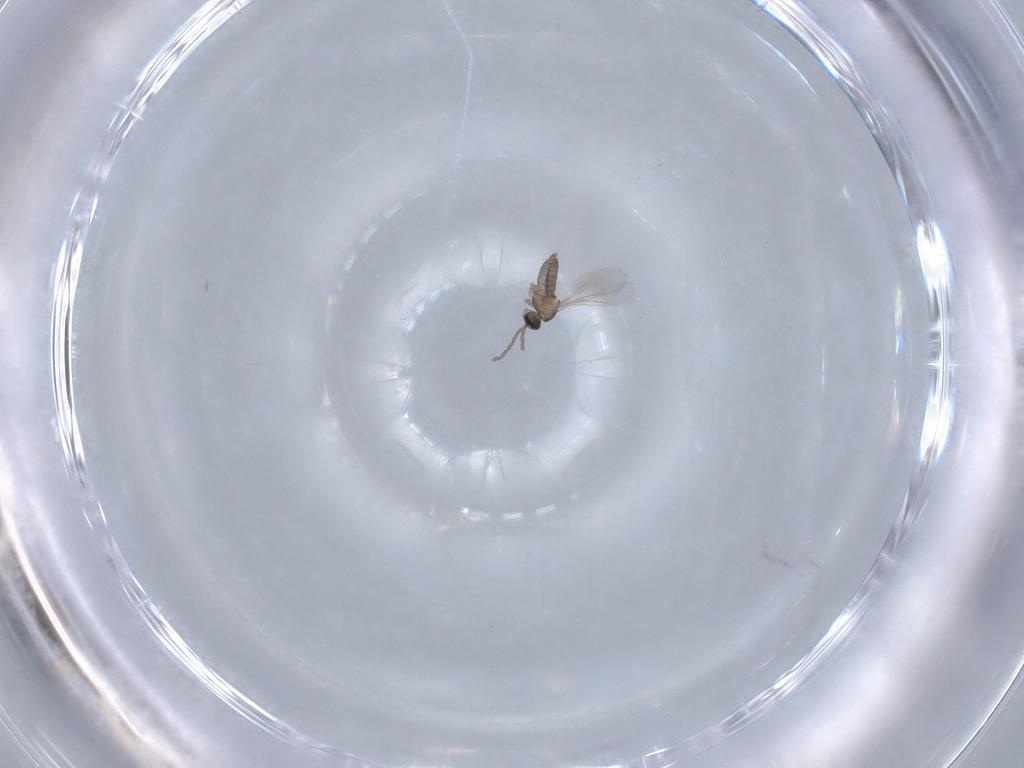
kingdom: Animalia
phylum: Arthropoda
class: Insecta
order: Diptera
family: Cecidomyiidae
